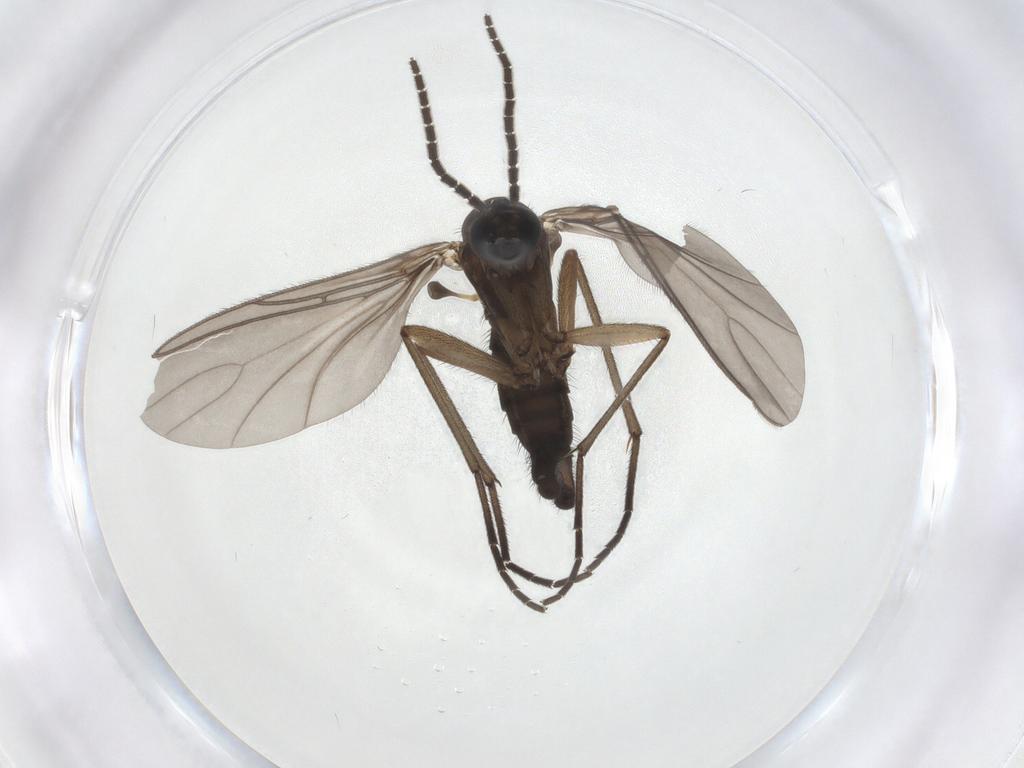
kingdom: Animalia
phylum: Arthropoda
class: Insecta
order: Diptera
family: Sciaridae
